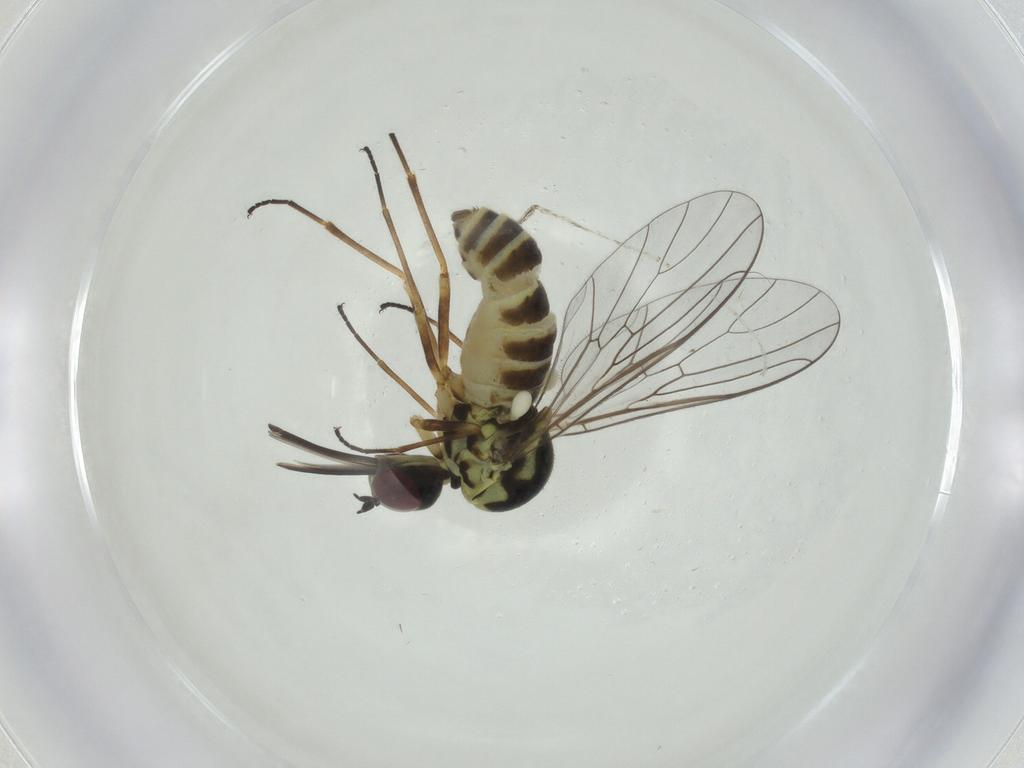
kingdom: Animalia
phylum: Arthropoda
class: Insecta
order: Diptera
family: Cecidomyiidae
